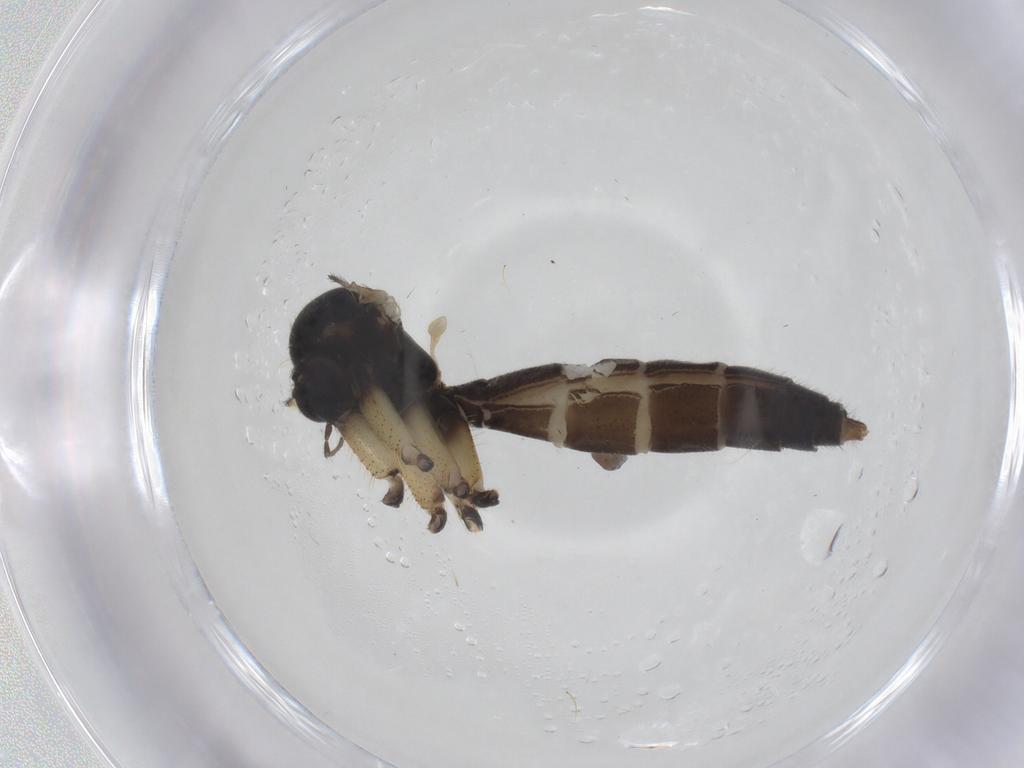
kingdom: Animalia
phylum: Arthropoda
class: Insecta
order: Diptera
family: Mycetophilidae
